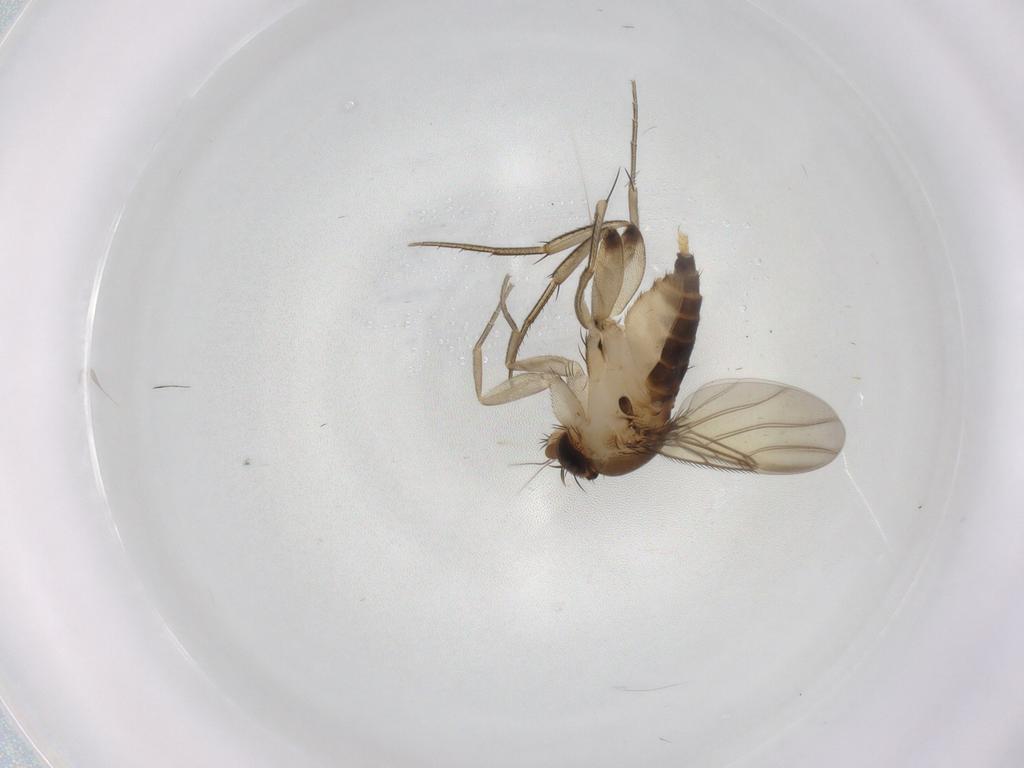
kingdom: Animalia
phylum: Arthropoda
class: Insecta
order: Diptera
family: Phoridae
